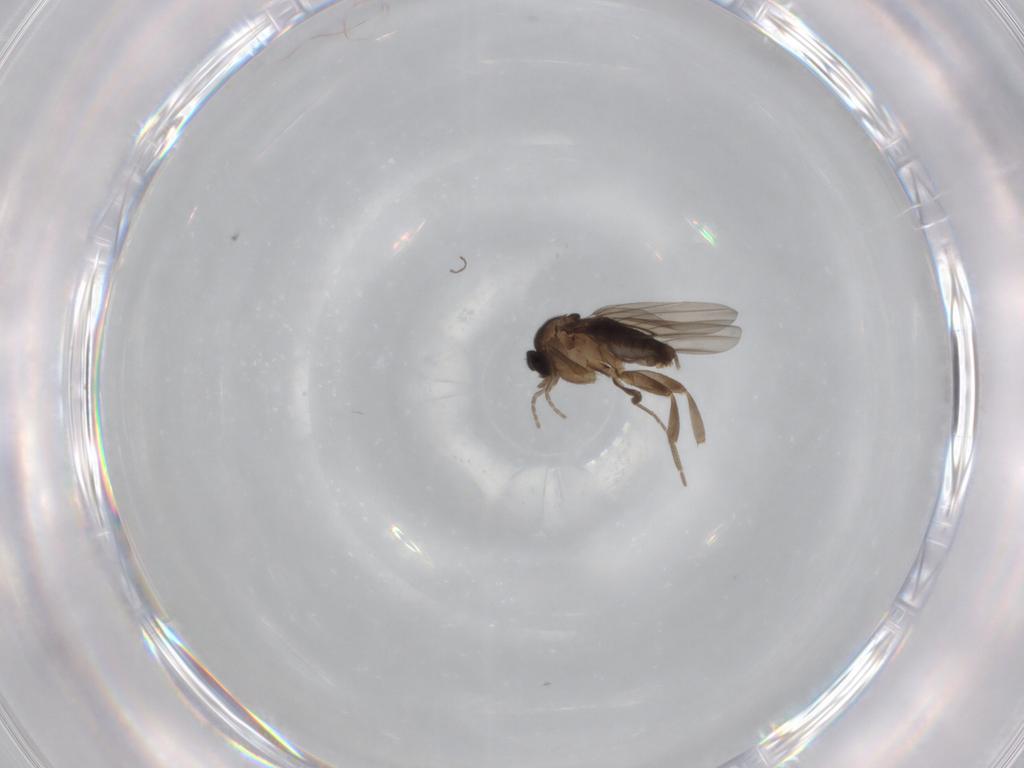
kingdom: Animalia
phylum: Arthropoda
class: Insecta
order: Diptera
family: Phoridae
